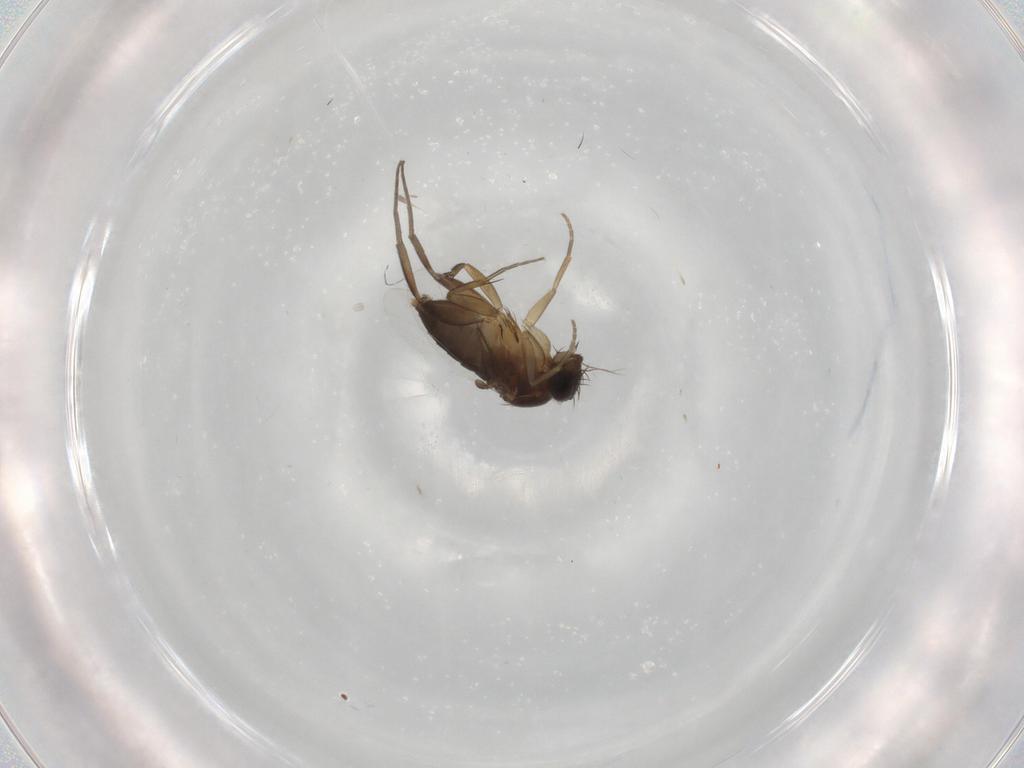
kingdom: Animalia
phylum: Arthropoda
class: Insecta
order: Diptera
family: Phoridae
